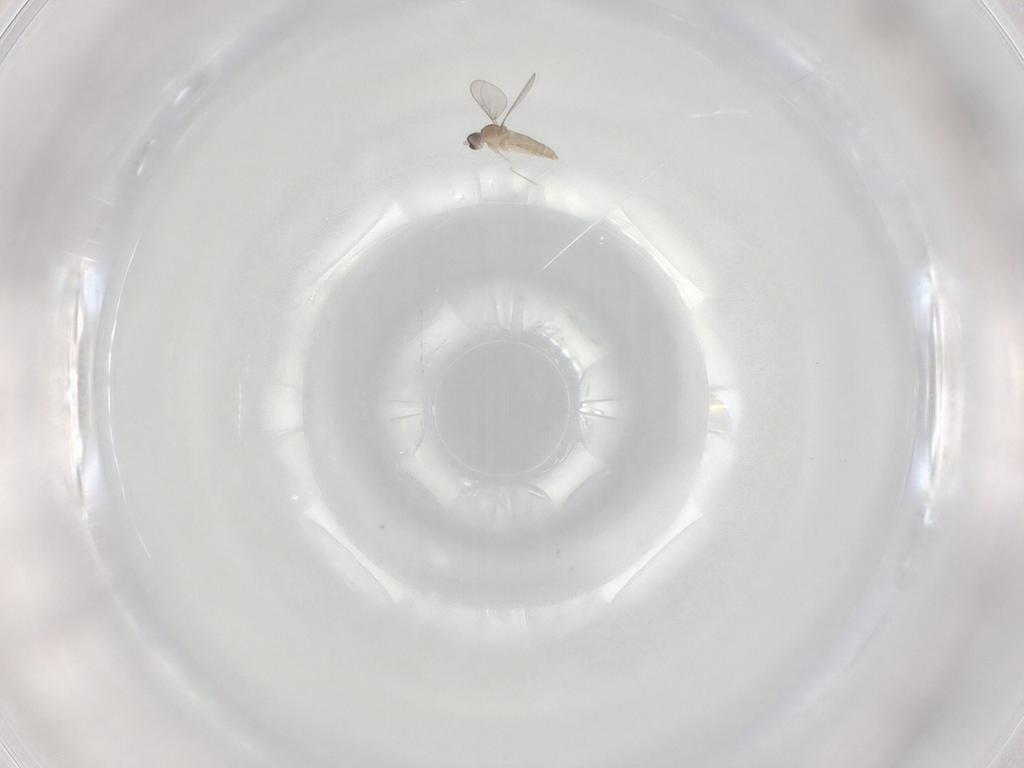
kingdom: Animalia
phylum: Arthropoda
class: Insecta
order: Diptera
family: Cecidomyiidae
